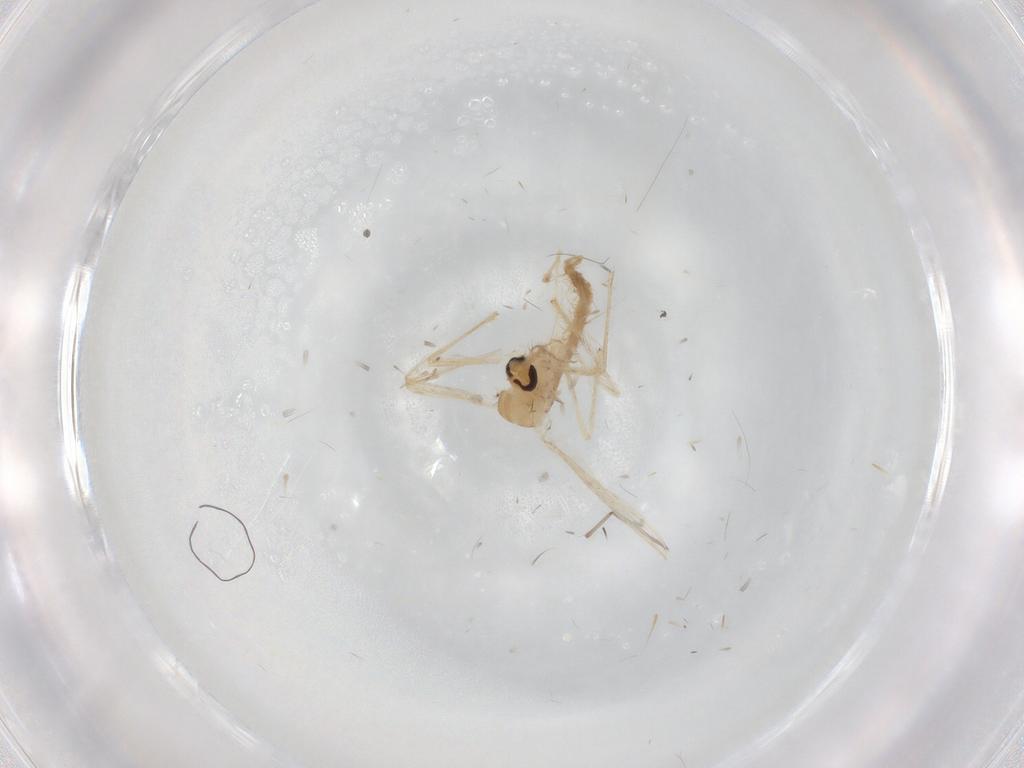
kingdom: Animalia
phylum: Arthropoda
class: Insecta
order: Diptera
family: Chironomidae
